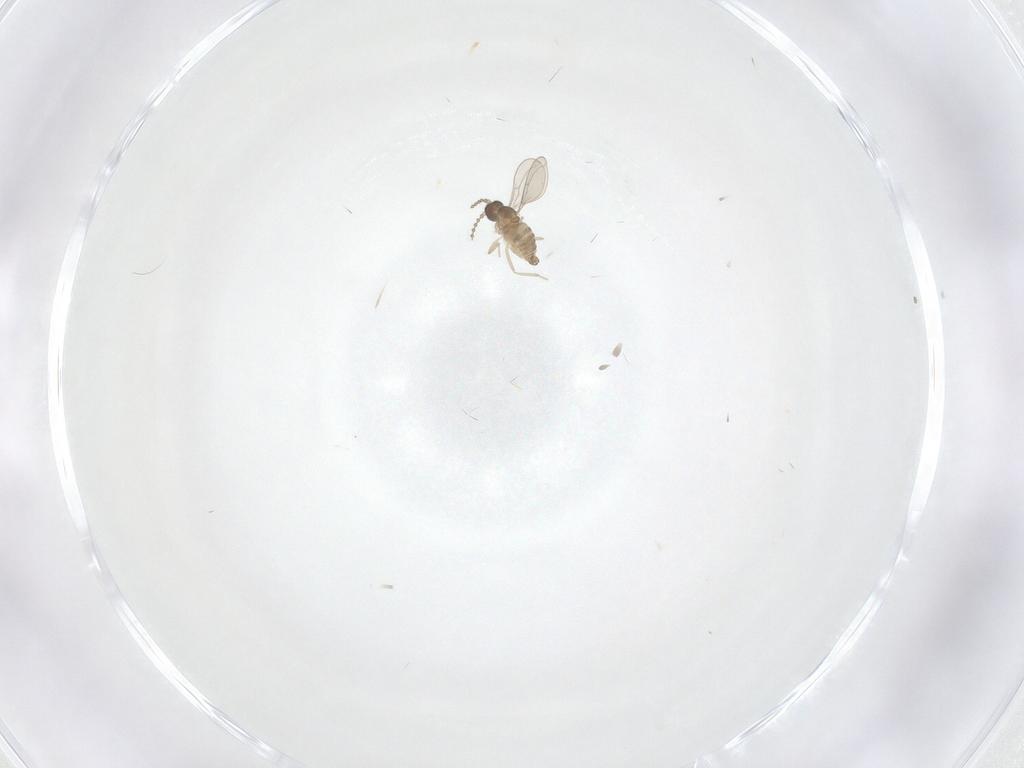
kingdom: Animalia
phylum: Arthropoda
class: Insecta
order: Diptera
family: Cecidomyiidae
